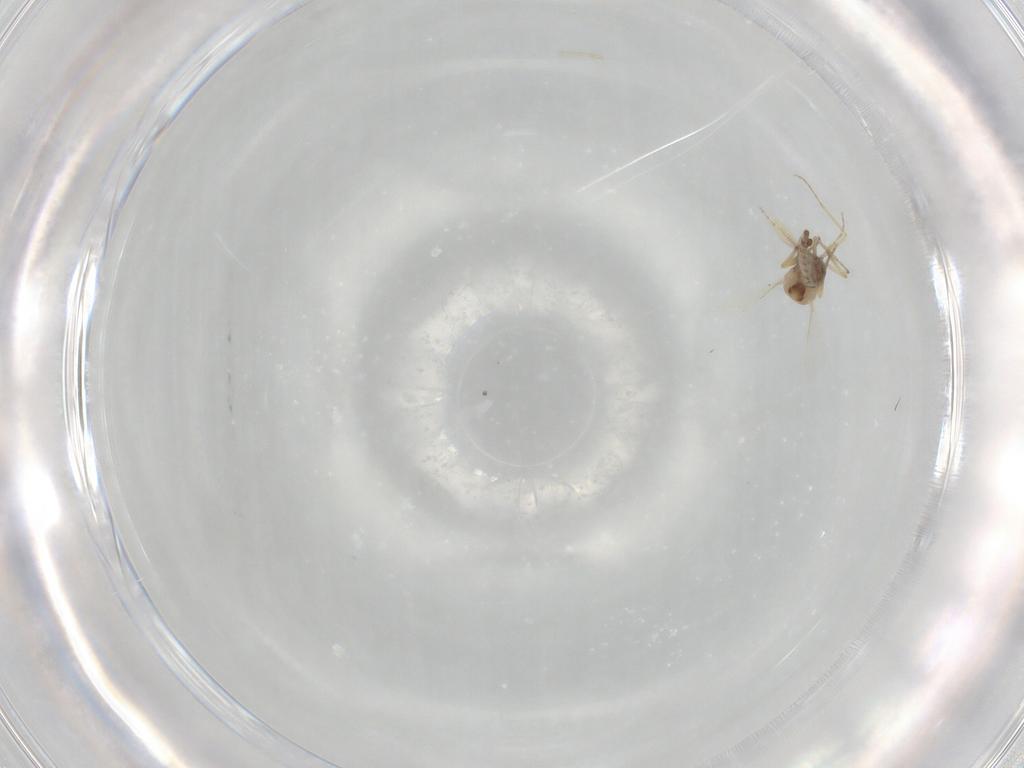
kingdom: Animalia
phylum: Arthropoda
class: Insecta
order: Diptera
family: Ceratopogonidae
